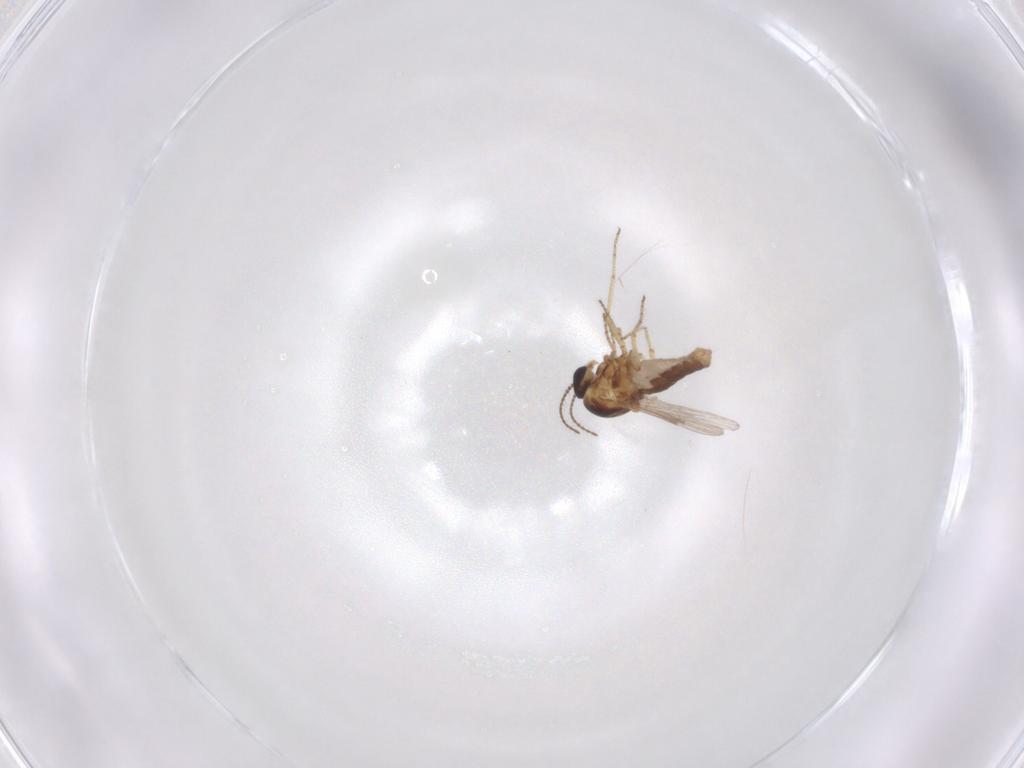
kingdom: Animalia
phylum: Arthropoda
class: Insecta
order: Diptera
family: Ceratopogonidae
